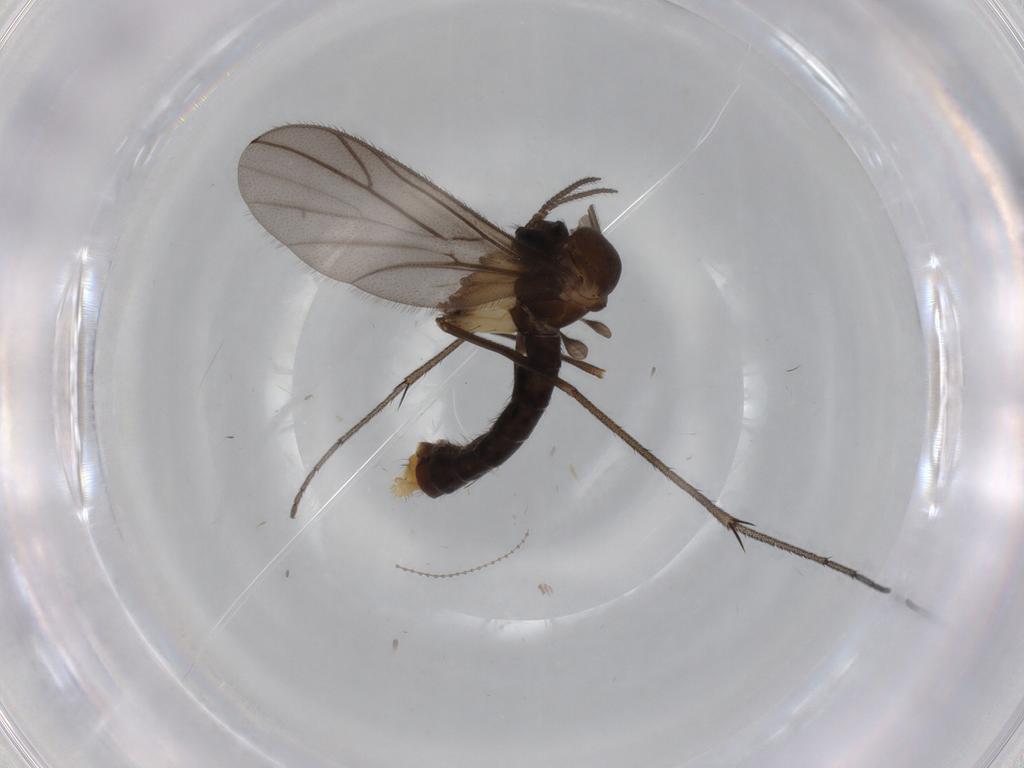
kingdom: Animalia
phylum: Arthropoda
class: Insecta
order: Diptera
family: Ditomyiidae
